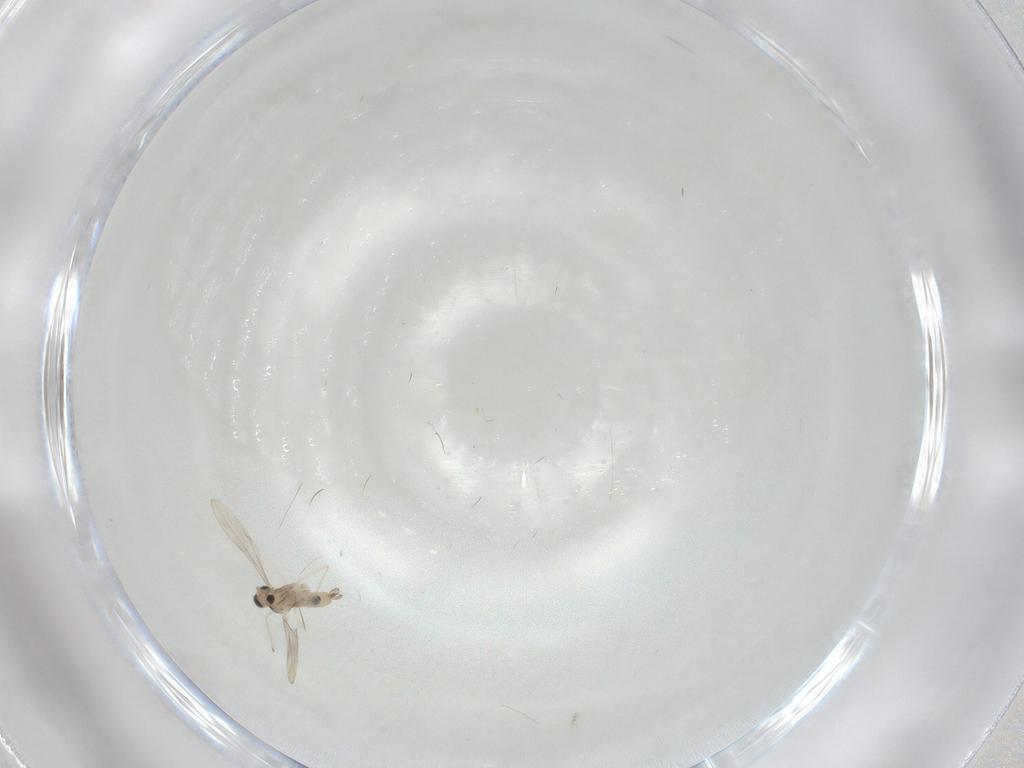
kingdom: Animalia
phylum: Arthropoda
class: Insecta
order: Diptera
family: Limoniidae
